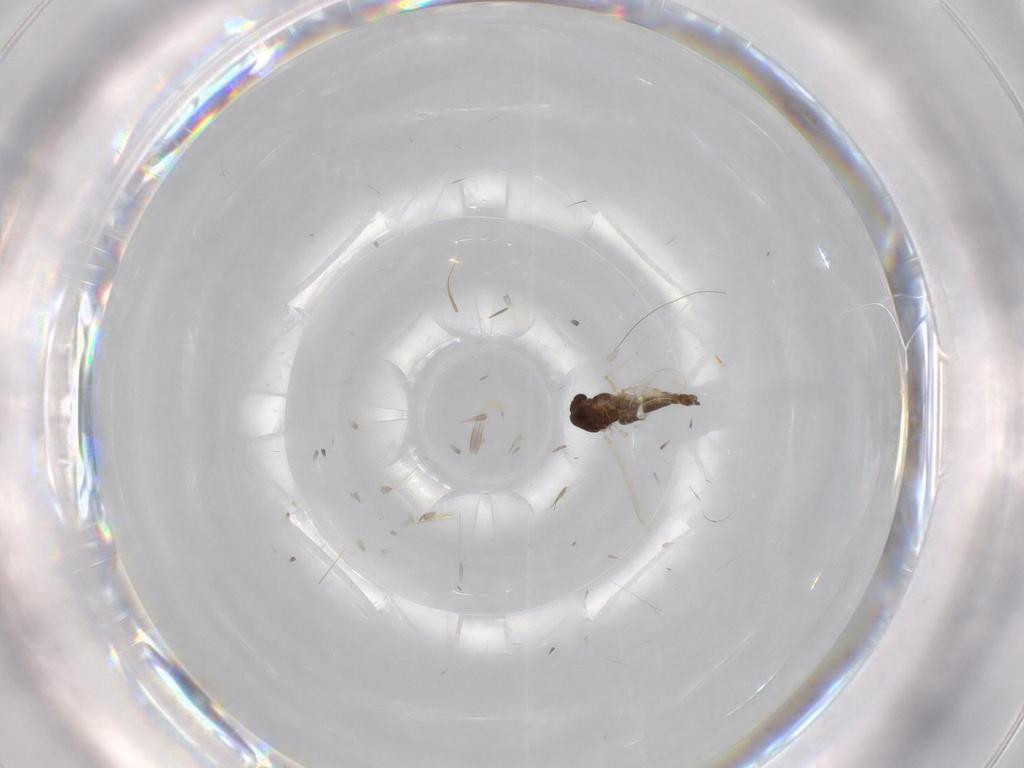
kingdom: Animalia
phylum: Arthropoda
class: Insecta
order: Diptera
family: Chironomidae
